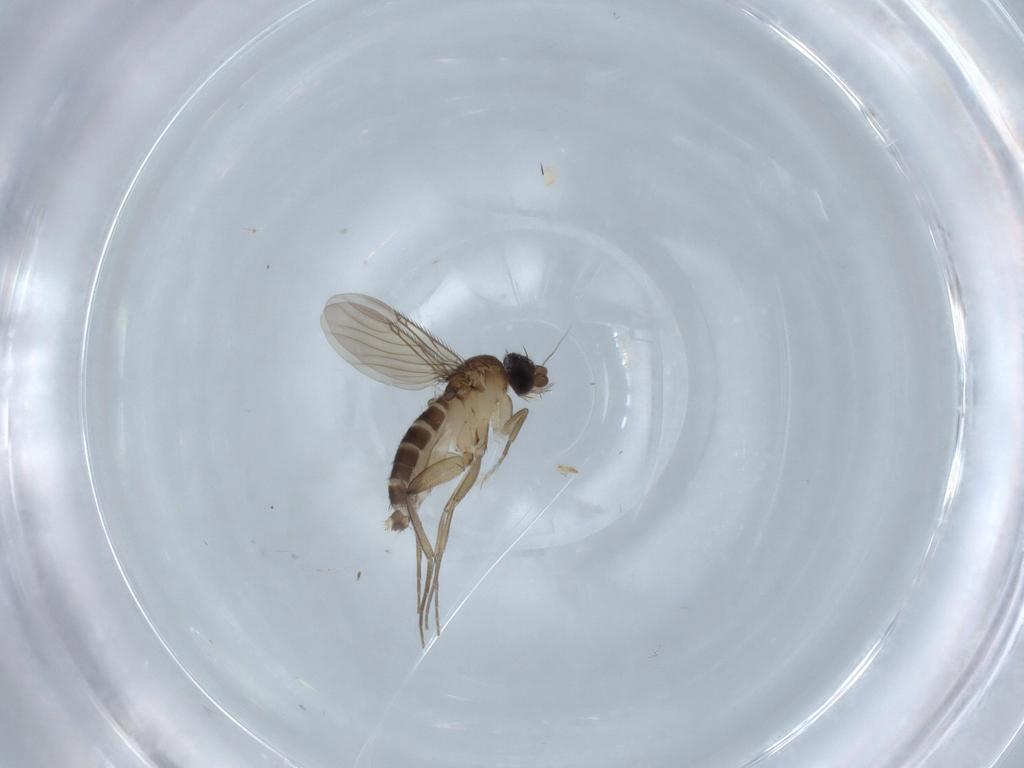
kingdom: Animalia
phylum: Arthropoda
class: Insecta
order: Diptera
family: Phoridae
